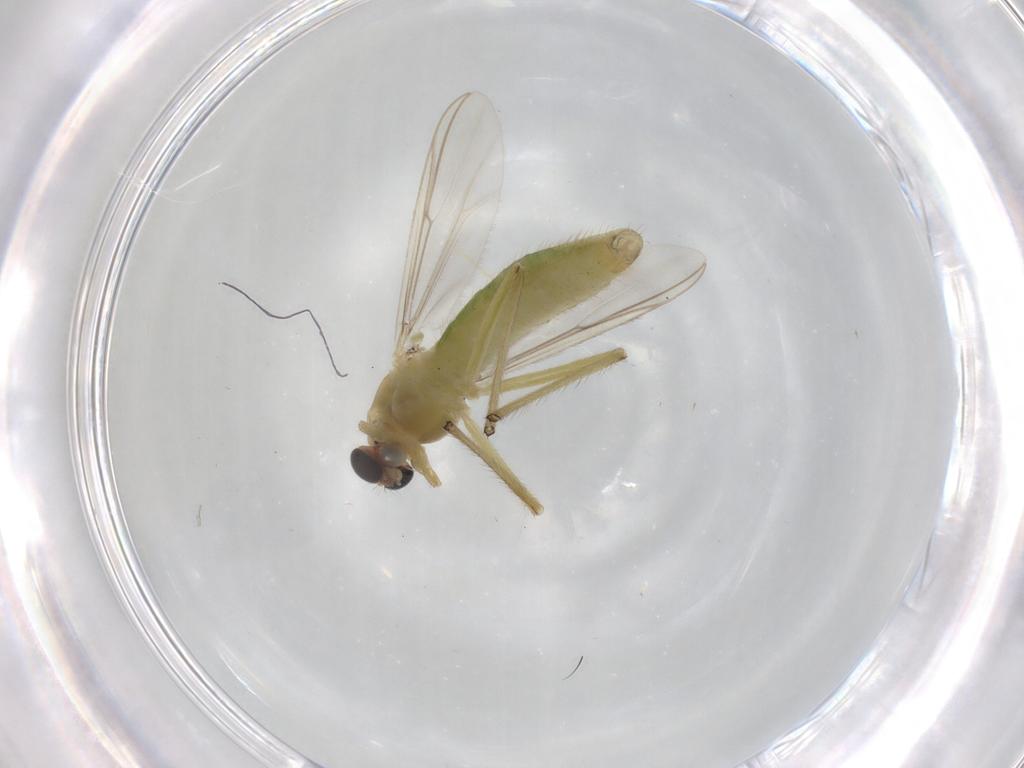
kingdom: Animalia
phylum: Arthropoda
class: Insecta
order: Diptera
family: Chironomidae
